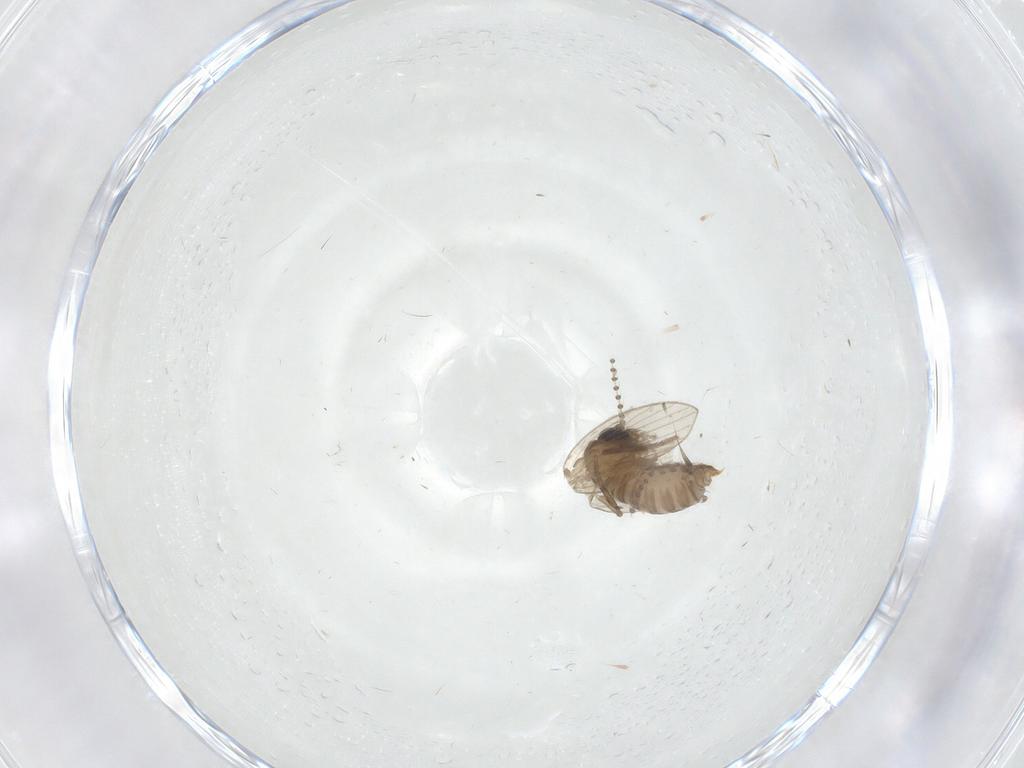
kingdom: Animalia
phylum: Arthropoda
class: Insecta
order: Diptera
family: Psychodidae
